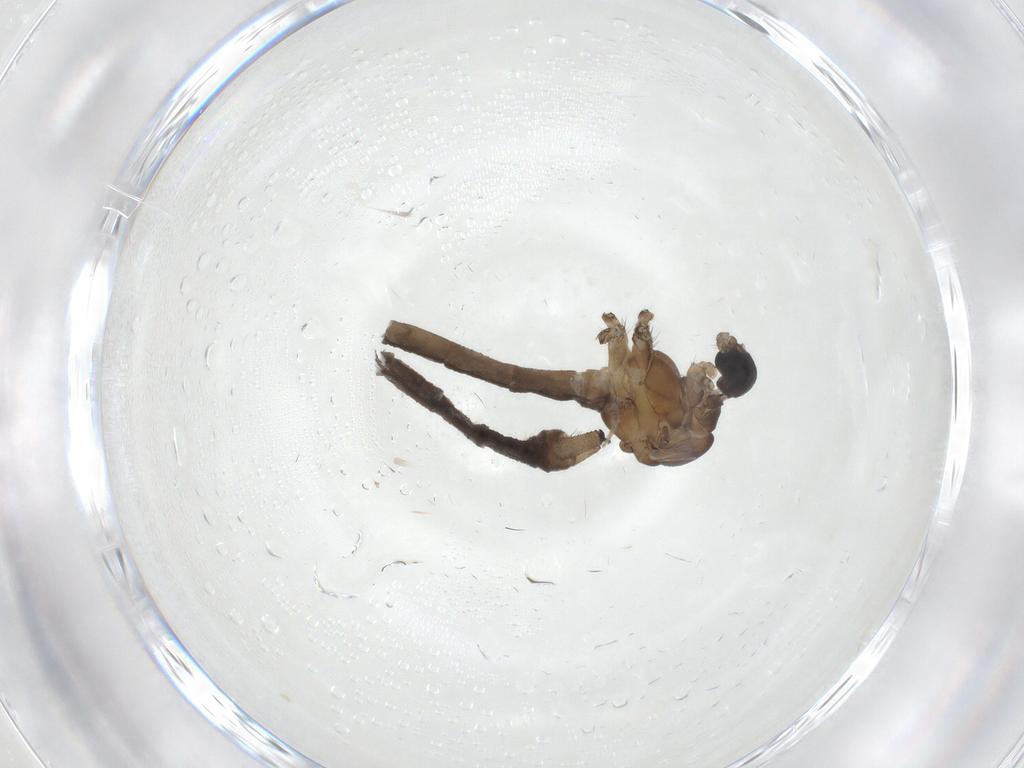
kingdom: Animalia
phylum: Arthropoda
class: Insecta
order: Diptera
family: Limoniidae
